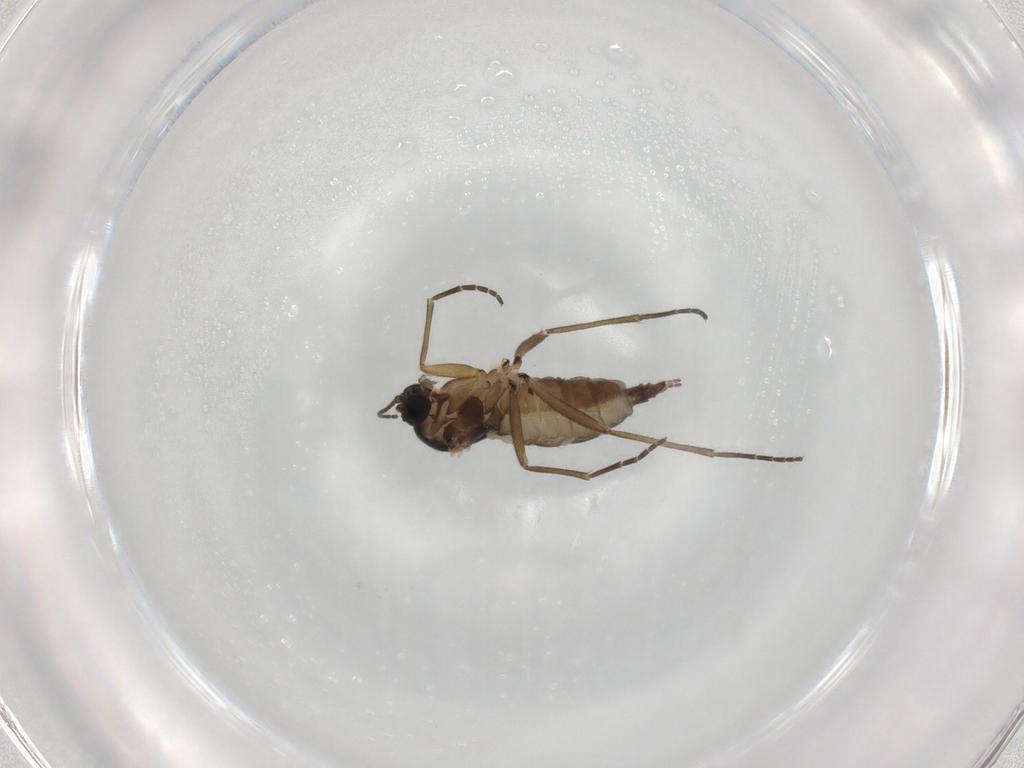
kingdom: Animalia
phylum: Arthropoda
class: Insecta
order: Diptera
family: Phoridae
